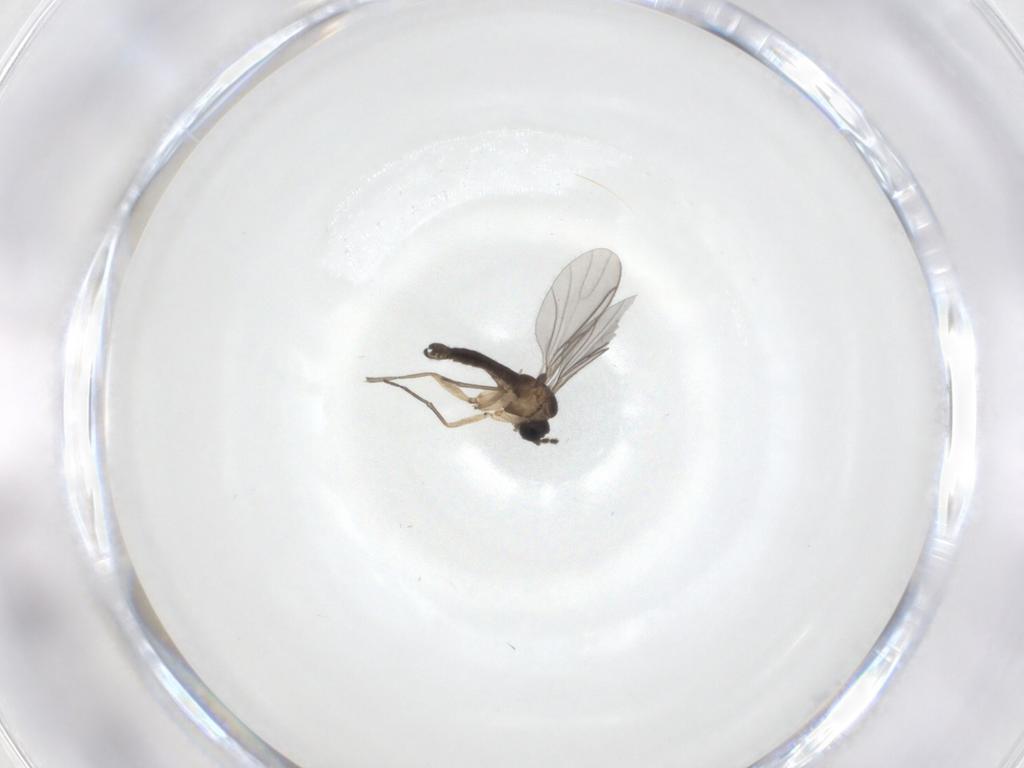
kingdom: Animalia
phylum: Arthropoda
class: Insecta
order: Diptera
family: Sciaridae
